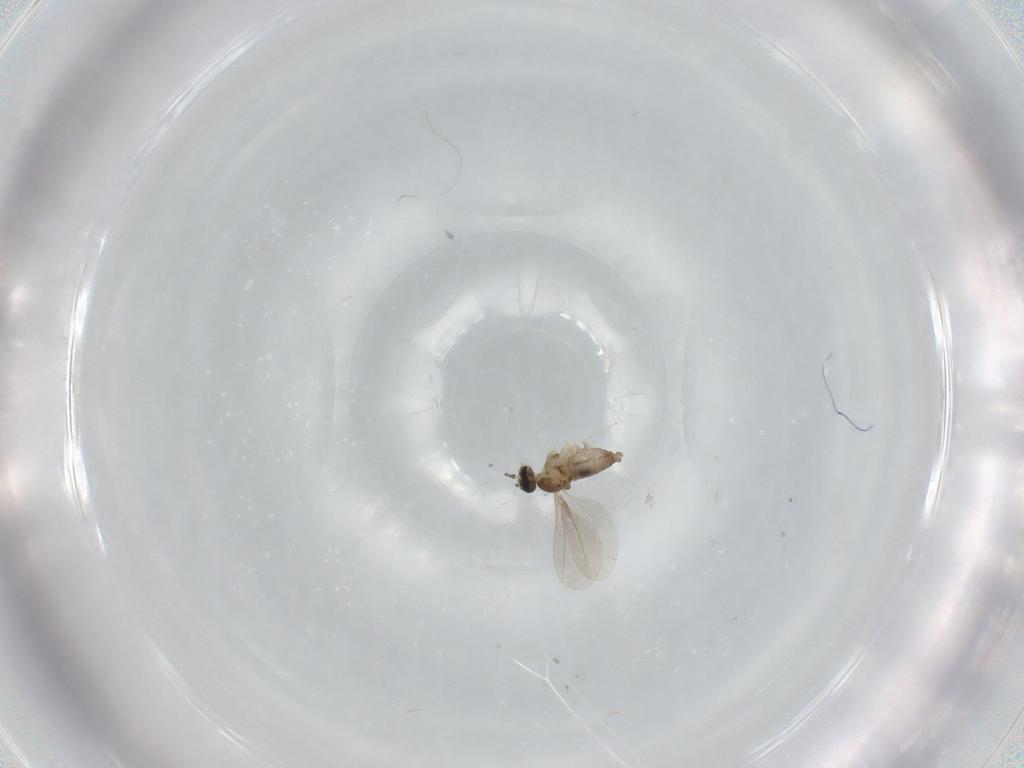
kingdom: Animalia
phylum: Arthropoda
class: Insecta
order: Diptera
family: Cecidomyiidae
